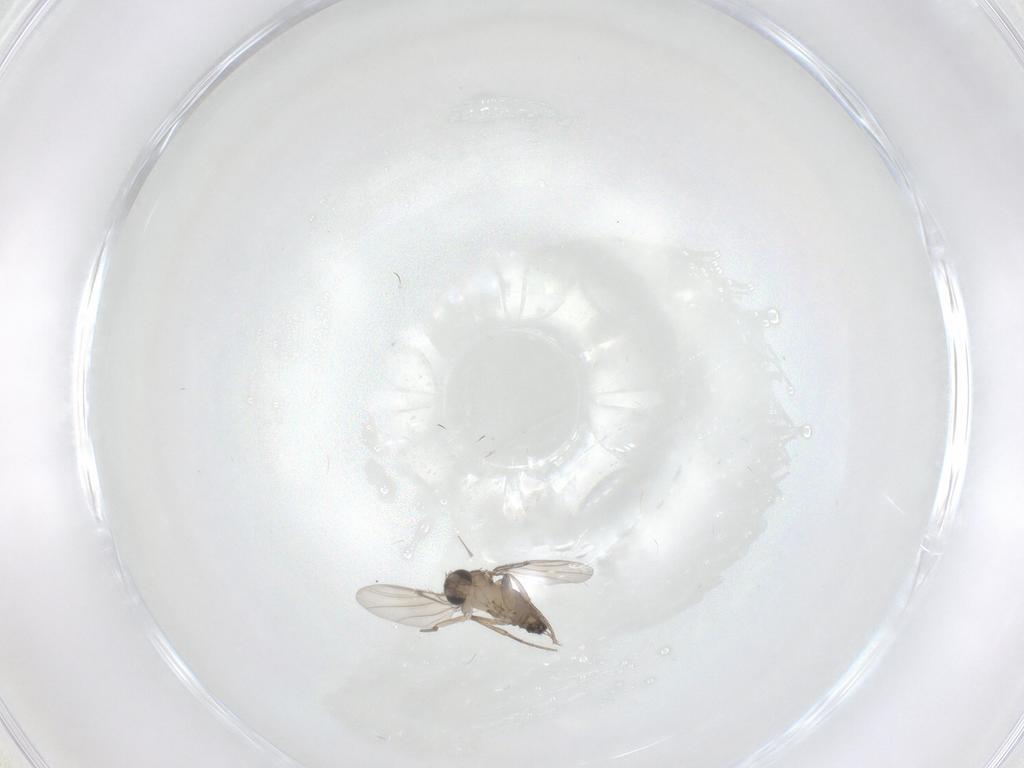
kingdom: Animalia
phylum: Arthropoda
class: Insecta
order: Diptera
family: Phoridae
